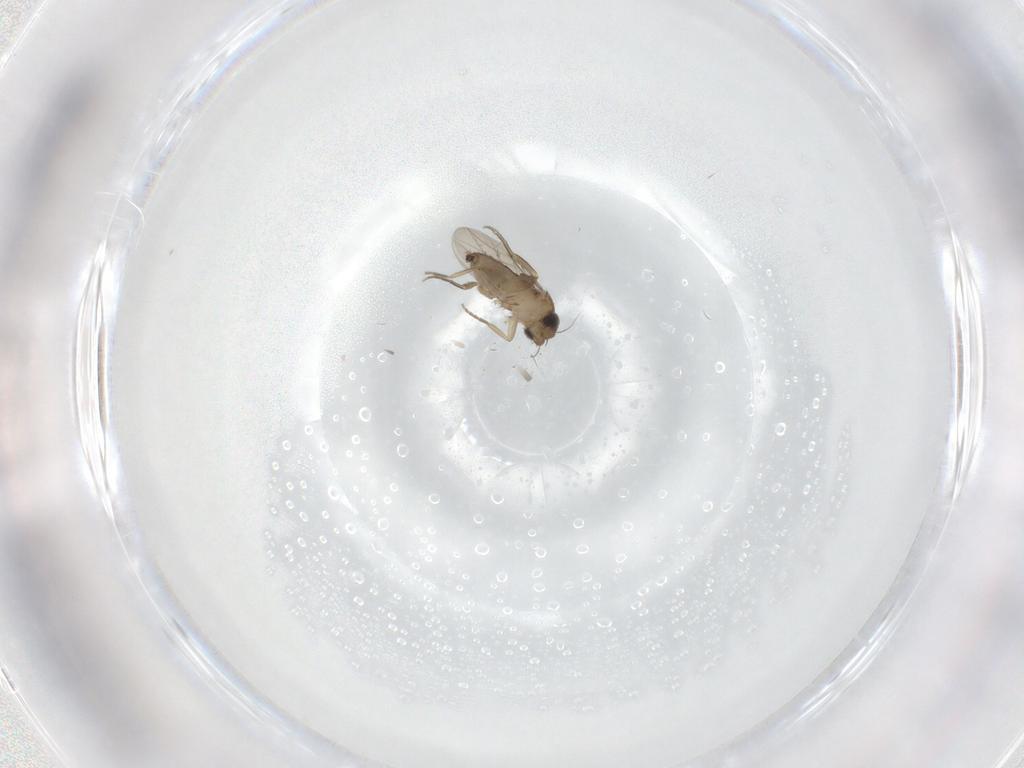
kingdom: Animalia
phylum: Arthropoda
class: Insecta
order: Diptera
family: Phoridae
